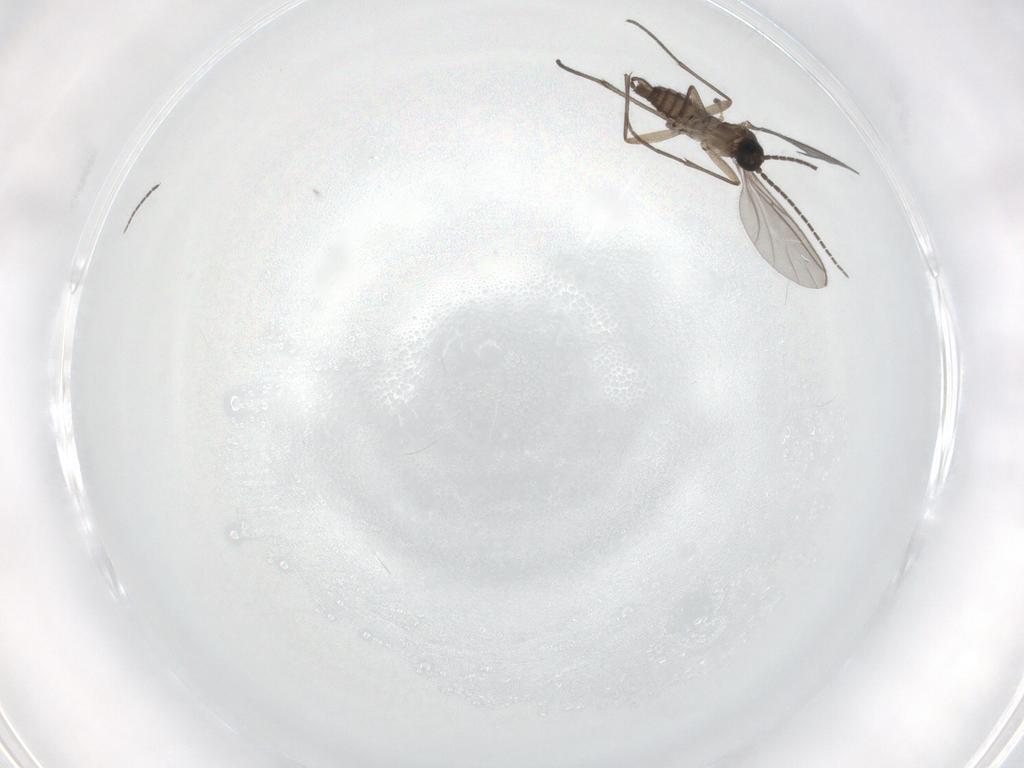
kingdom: Animalia
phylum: Arthropoda
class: Insecta
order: Diptera
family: Sciaridae
